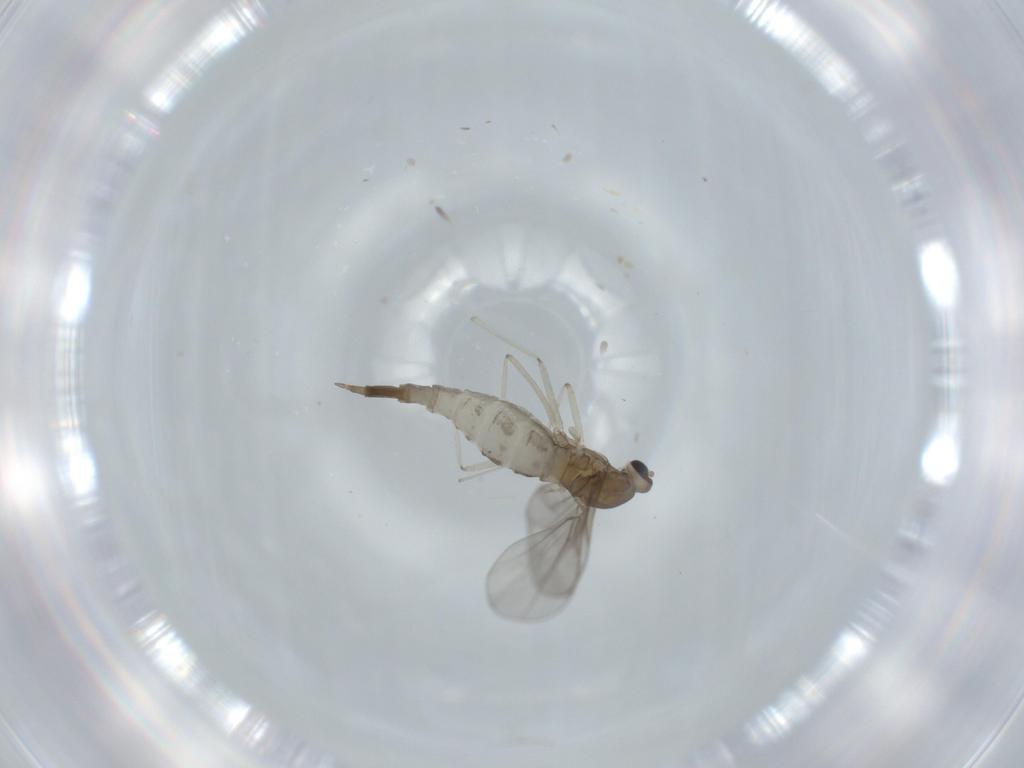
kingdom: Animalia
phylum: Arthropoda
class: Insecta
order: Diptera
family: Cecidomyiidae
